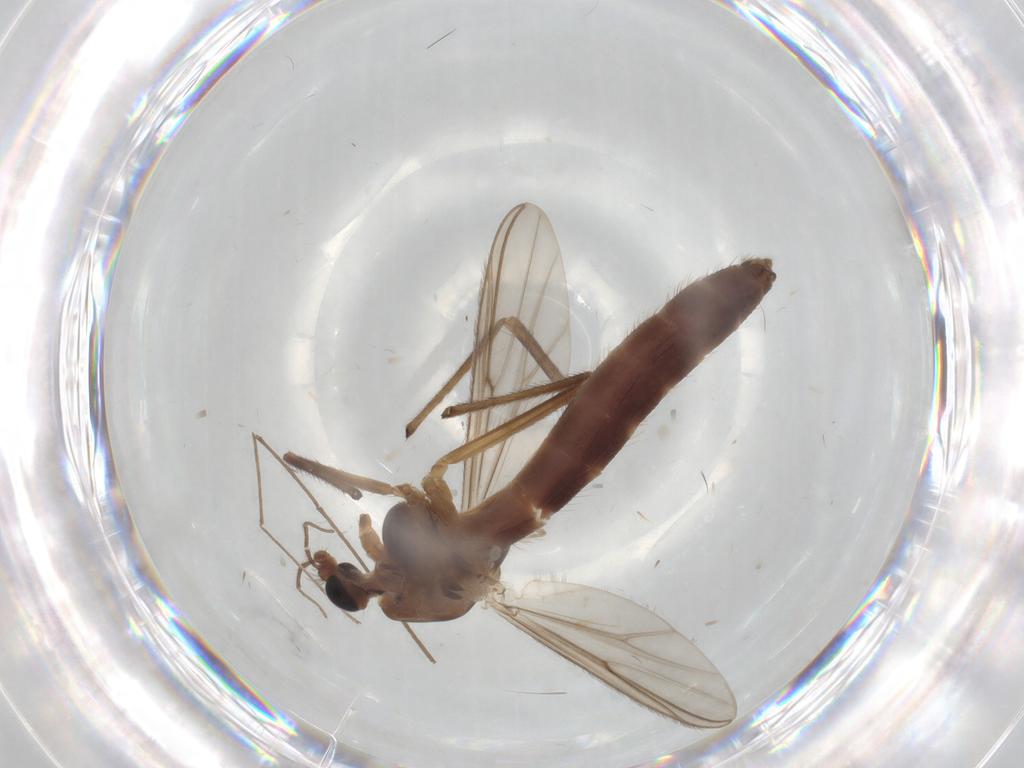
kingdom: Animalia
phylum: Arthropoda
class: Insecta
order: Diptera
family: Chironomidae
